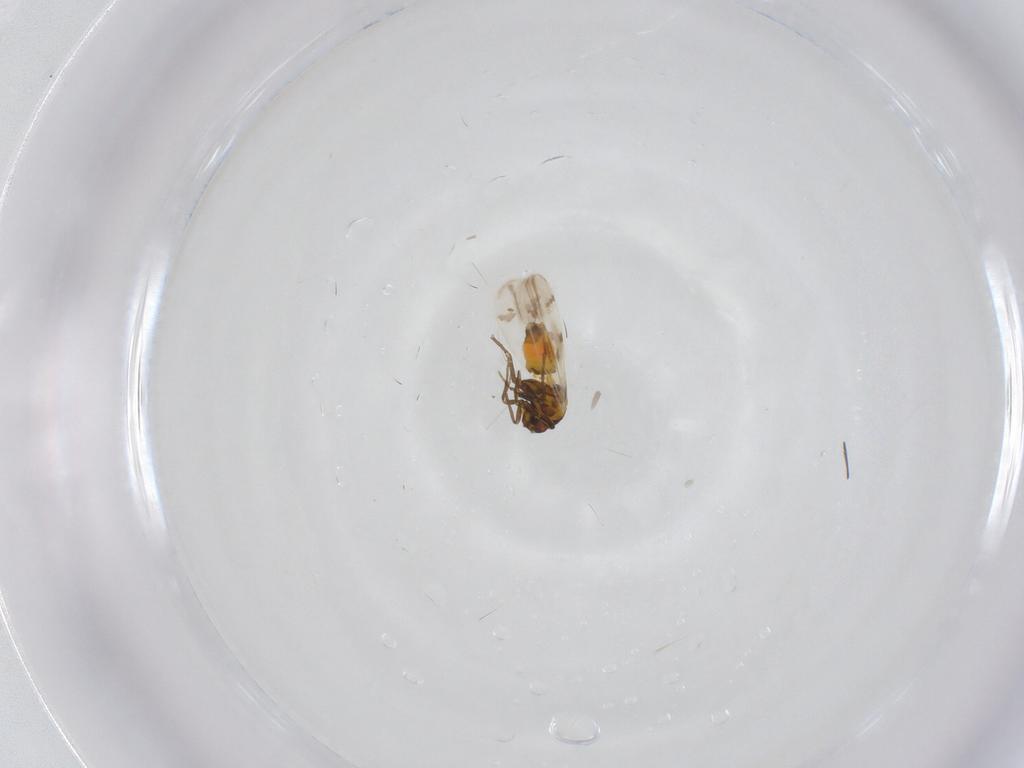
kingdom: Animalia
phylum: Arthropoda
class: Insecta
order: Hemiptera
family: Aleyrodidae
